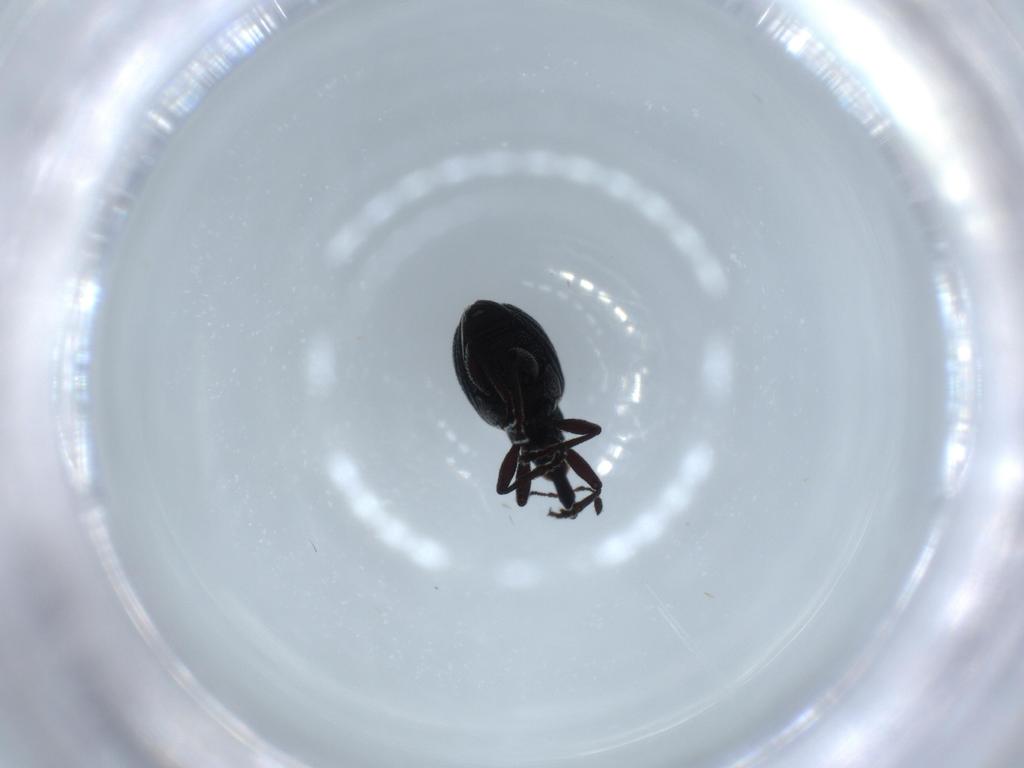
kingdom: Animalia
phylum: Arthropoda
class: Insecta
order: Coleoptera
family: Brentidae
